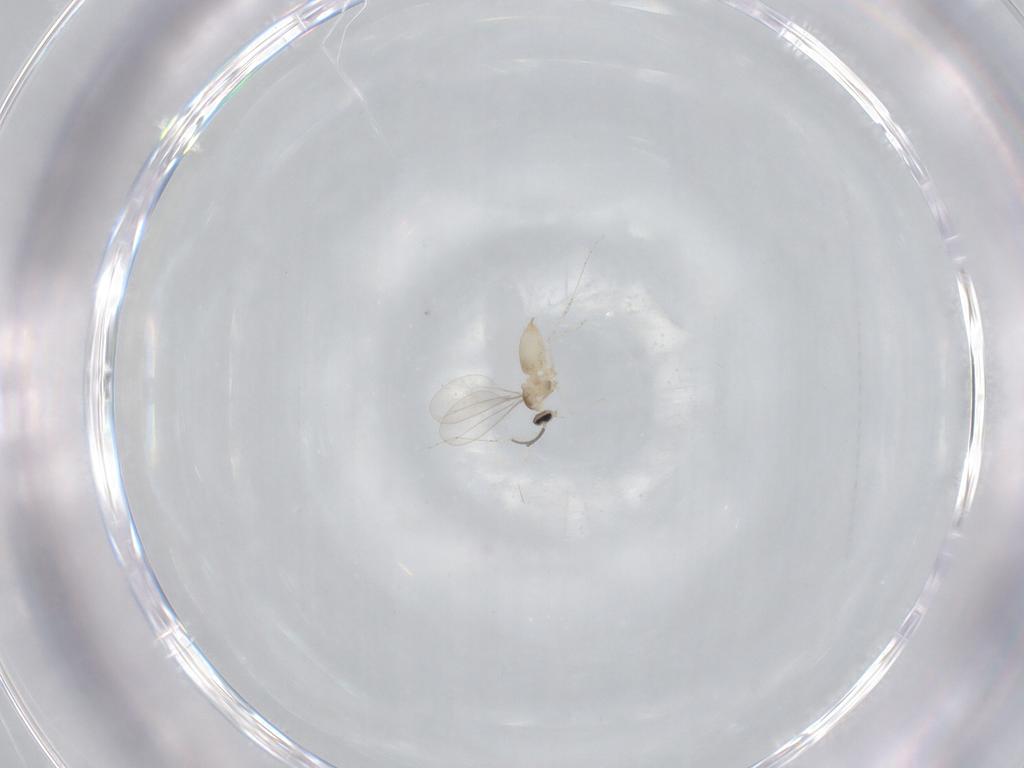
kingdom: Animalia
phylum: Arthropoda
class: Insecta
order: Diptera
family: Cecidomyiidae
